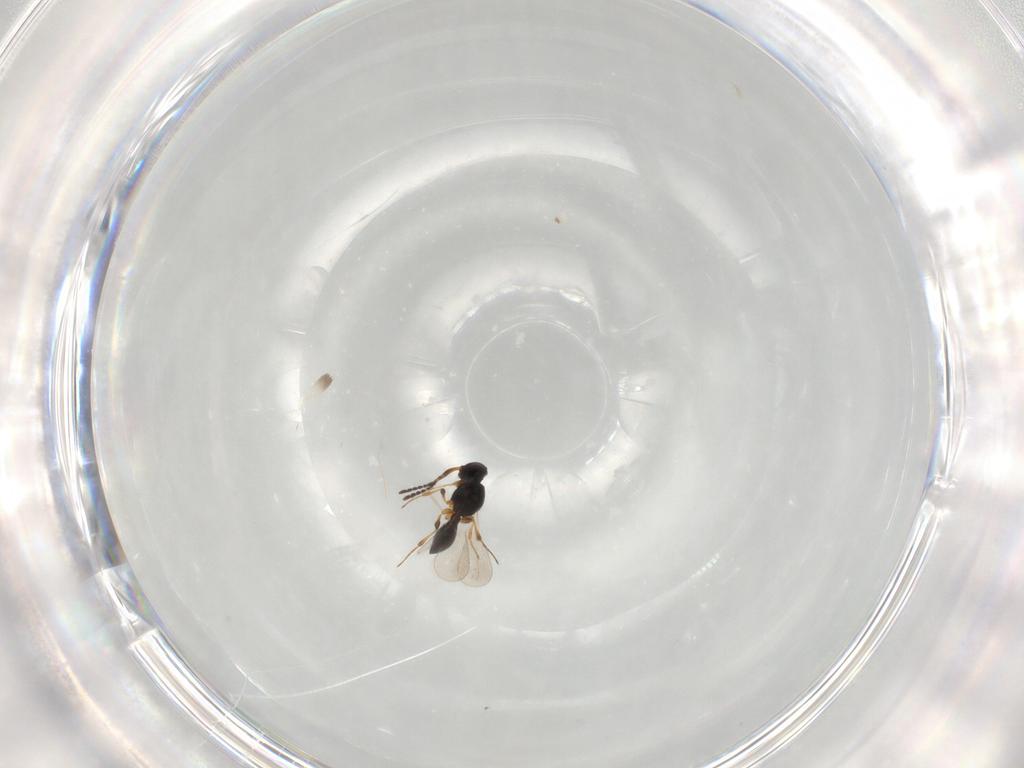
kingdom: Animalia
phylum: Arthropoda
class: Insecta
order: Hymenoptera
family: Platygastridae
